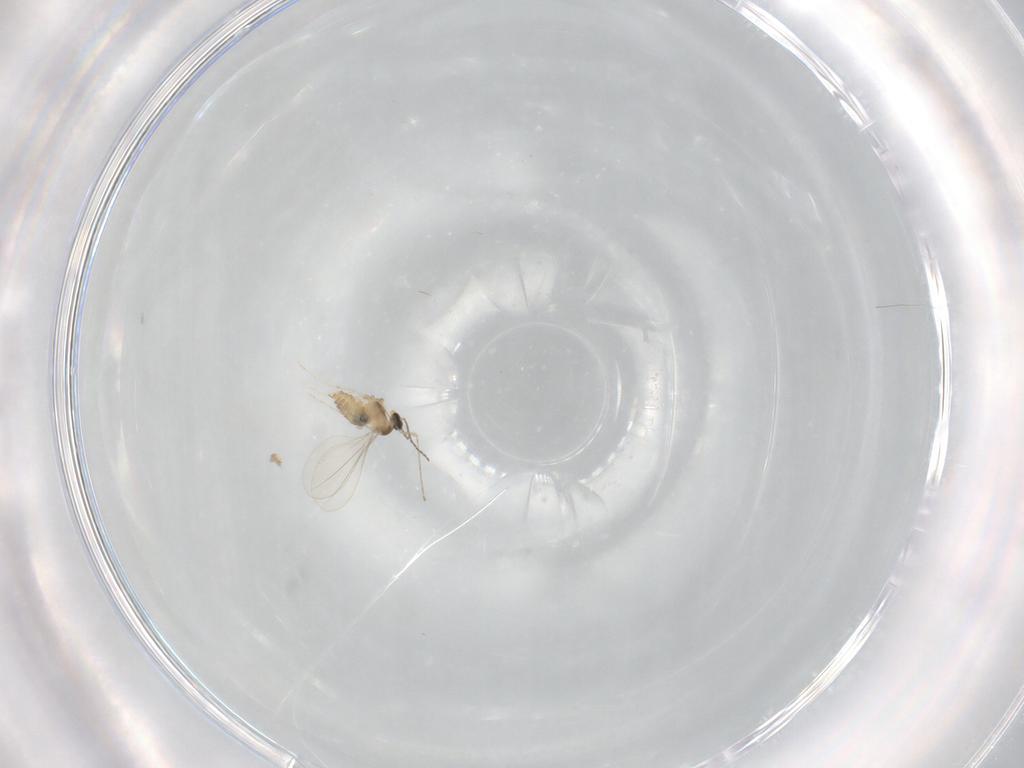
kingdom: Animalia
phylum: Arthropoda
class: Insecta
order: Diptera
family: Cecidomyiidae
